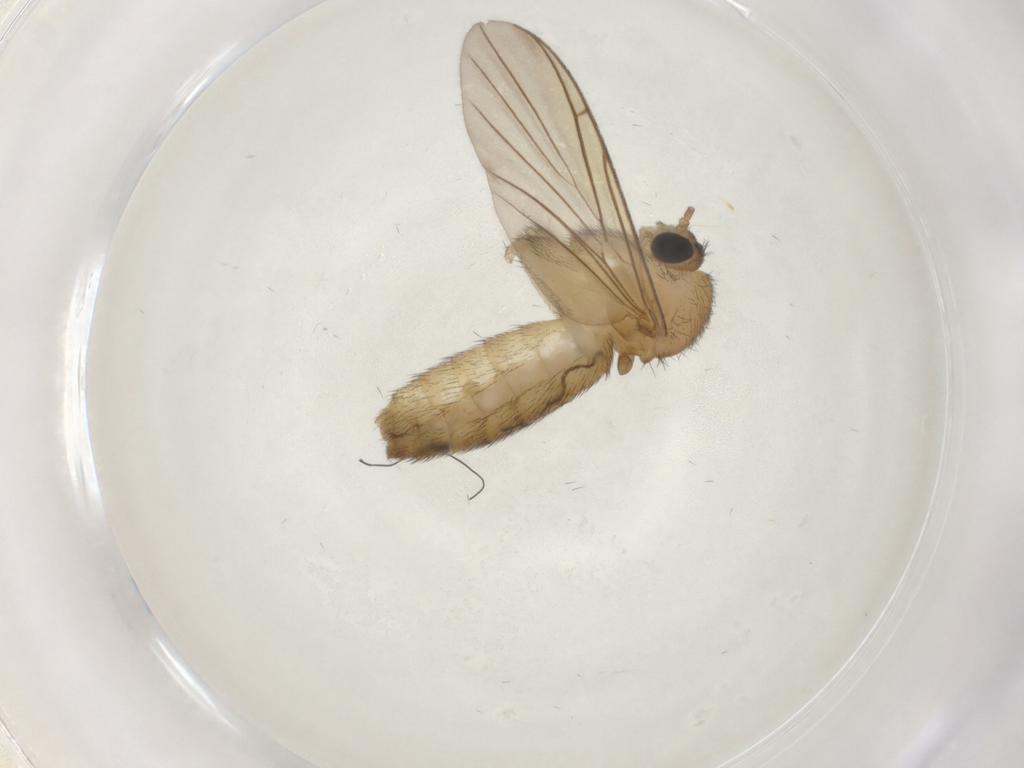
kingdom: Animalia
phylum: Arthropoda
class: Insecta
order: Diptera
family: Keroplatidae
